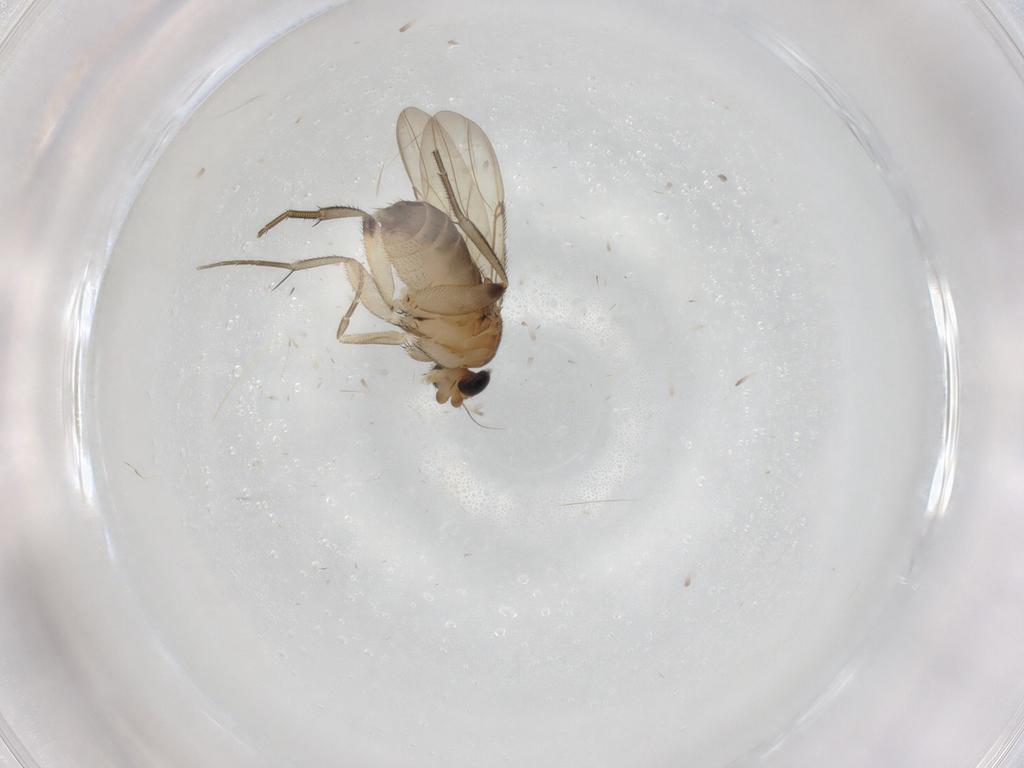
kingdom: Animalia
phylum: Arthropoda
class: Insecta
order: Diptera
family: Phoridae
